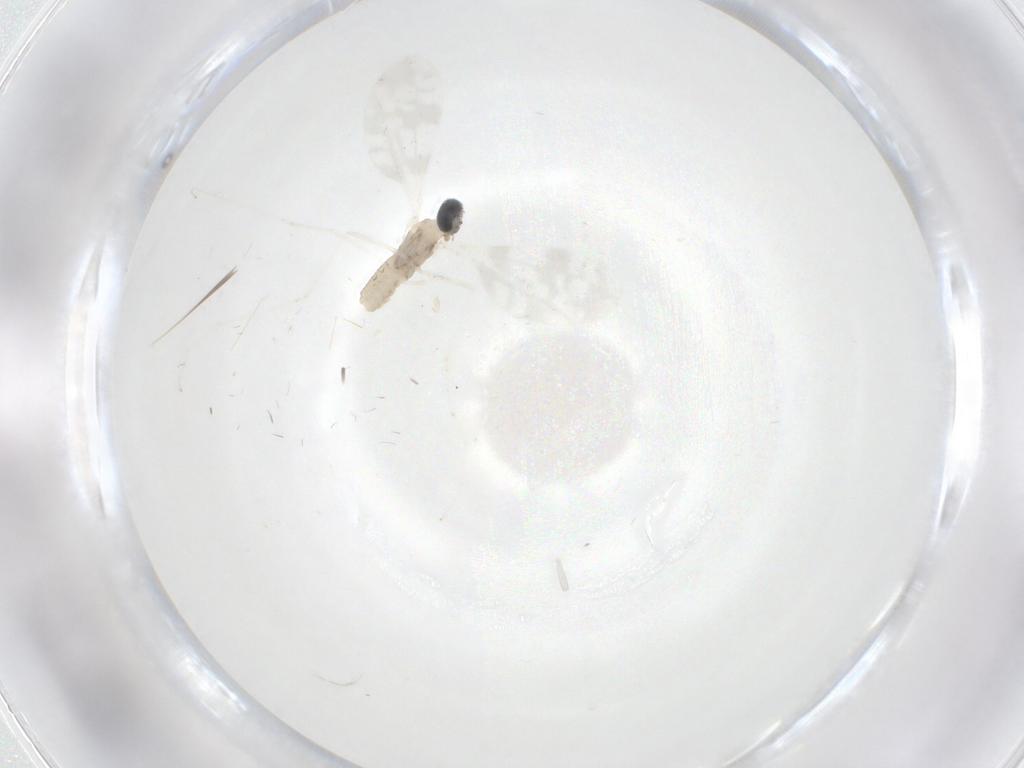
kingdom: Animalia
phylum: Arthropoda
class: Insecta
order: Diptera
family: Cecidomyiidae
